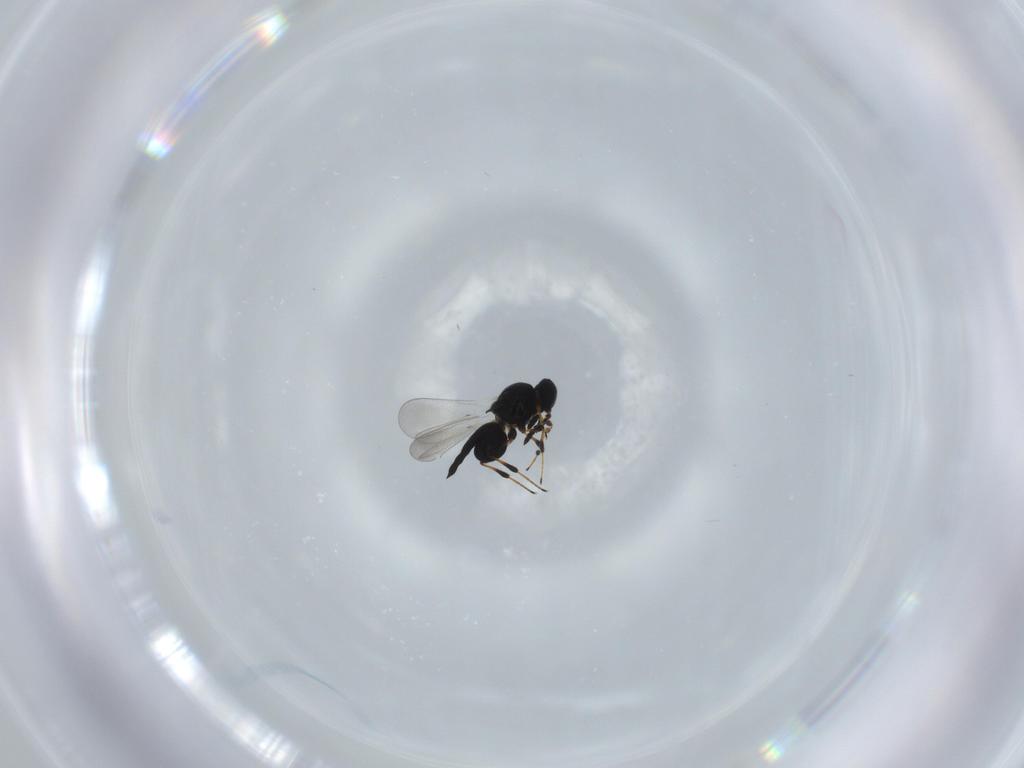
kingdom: Animalia
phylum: Arthropoda
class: Insecta
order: Hymenoptera
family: Platygastridae
